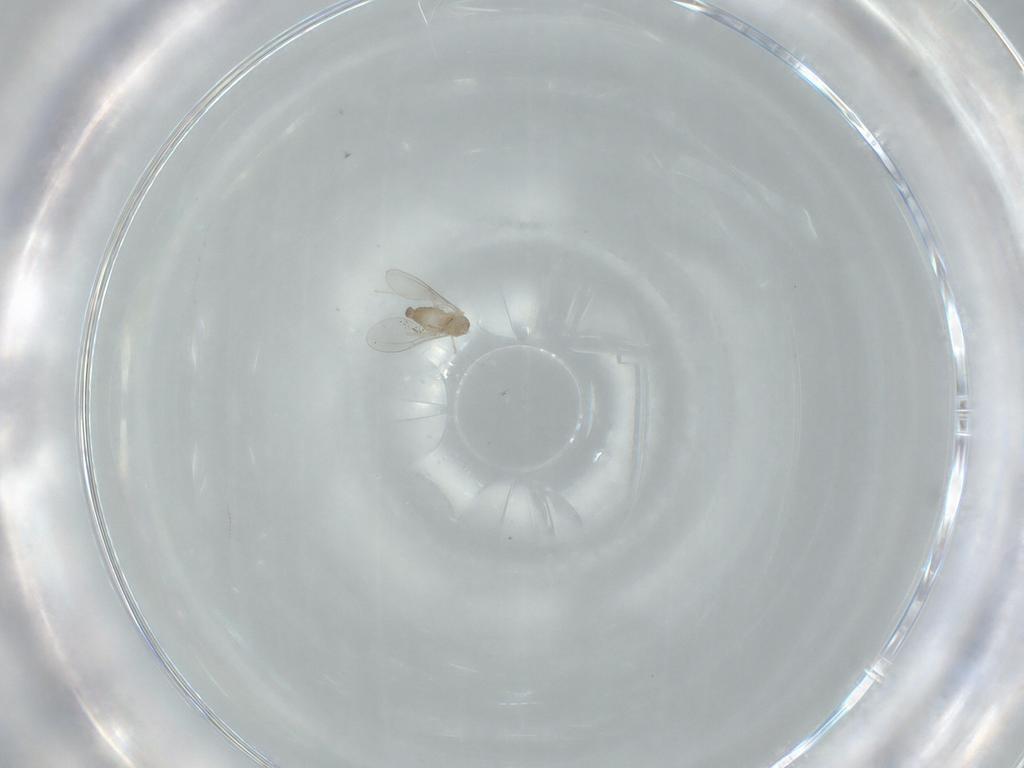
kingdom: Animalia
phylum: Arthropoda
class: Insecta
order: Diptera
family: Cecidomyiidae
